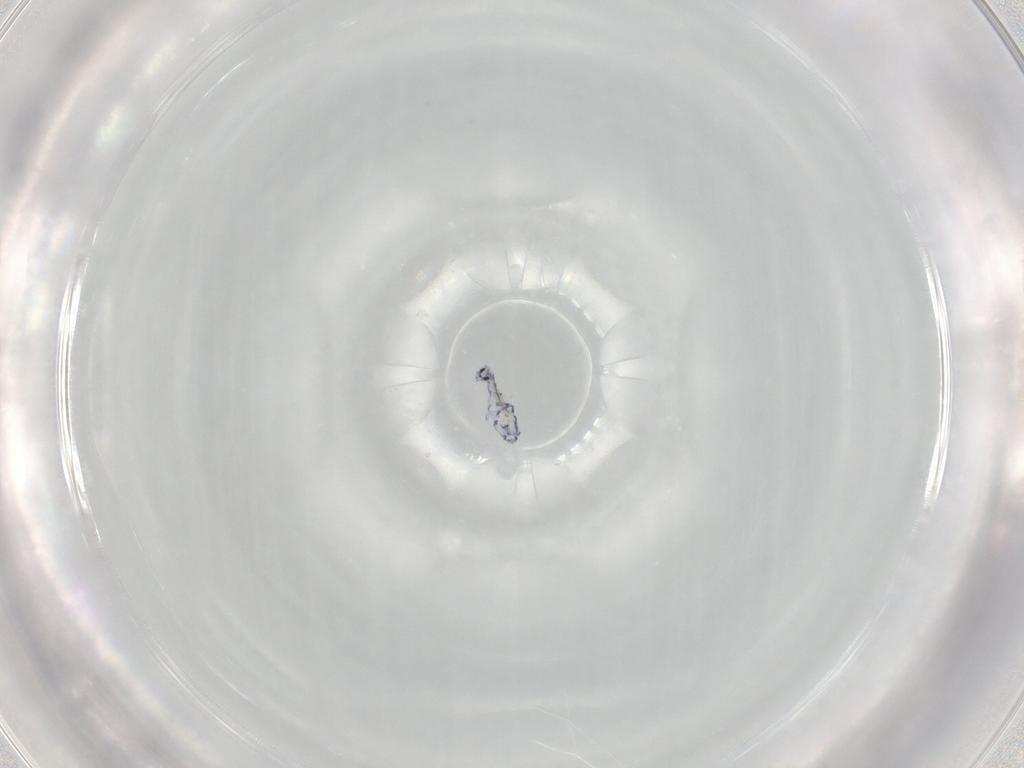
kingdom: Animalia
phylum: Arthropoda
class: Collembola
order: Entomobryomorpha
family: Entomobryidae
